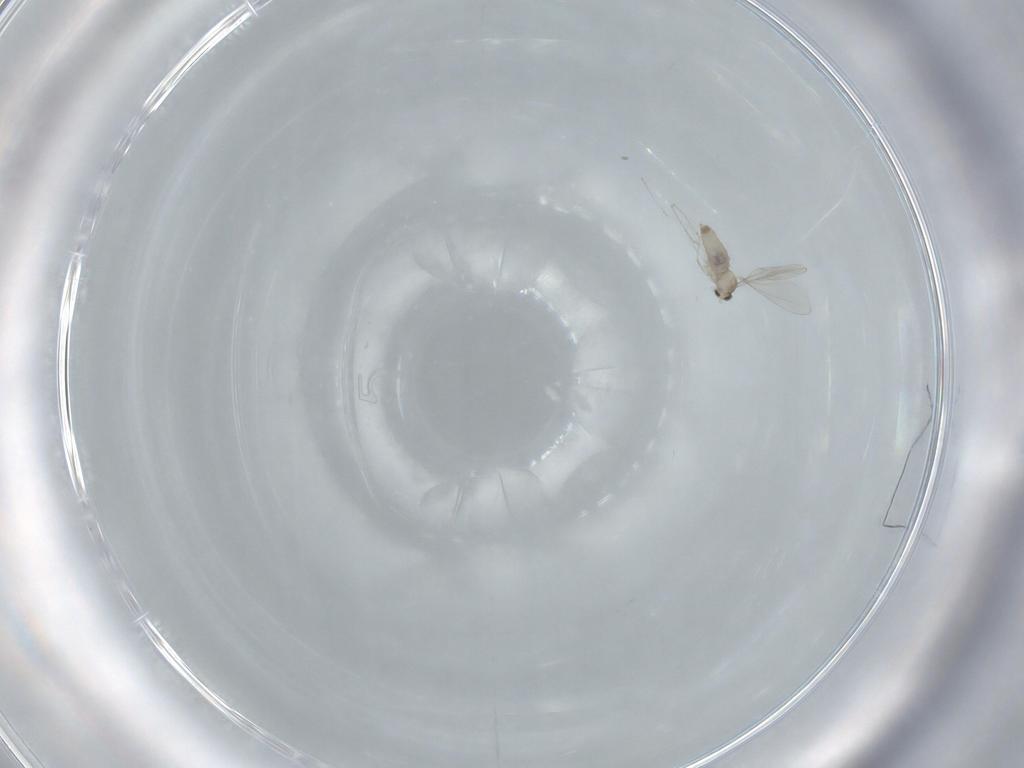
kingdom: Animalia
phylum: Arthropoda
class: Insecta
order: Diptera
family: Cecidomyiidae
